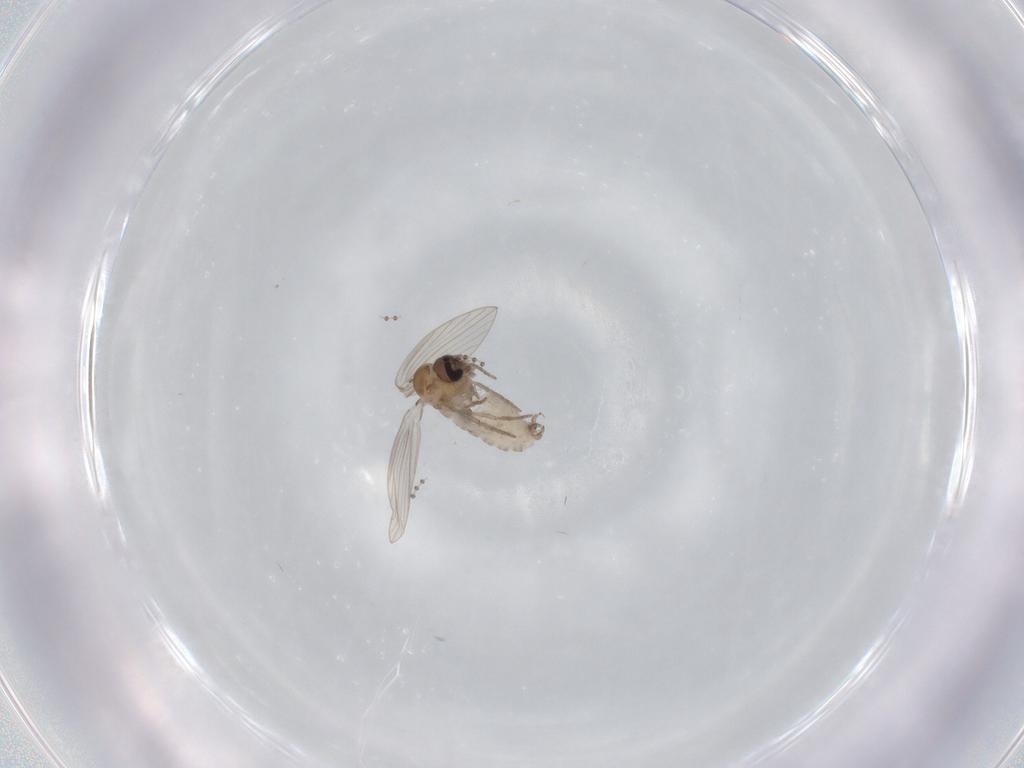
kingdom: Animalia
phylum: Arthropoda
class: Insecta
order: Diptera
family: Psychodidae
